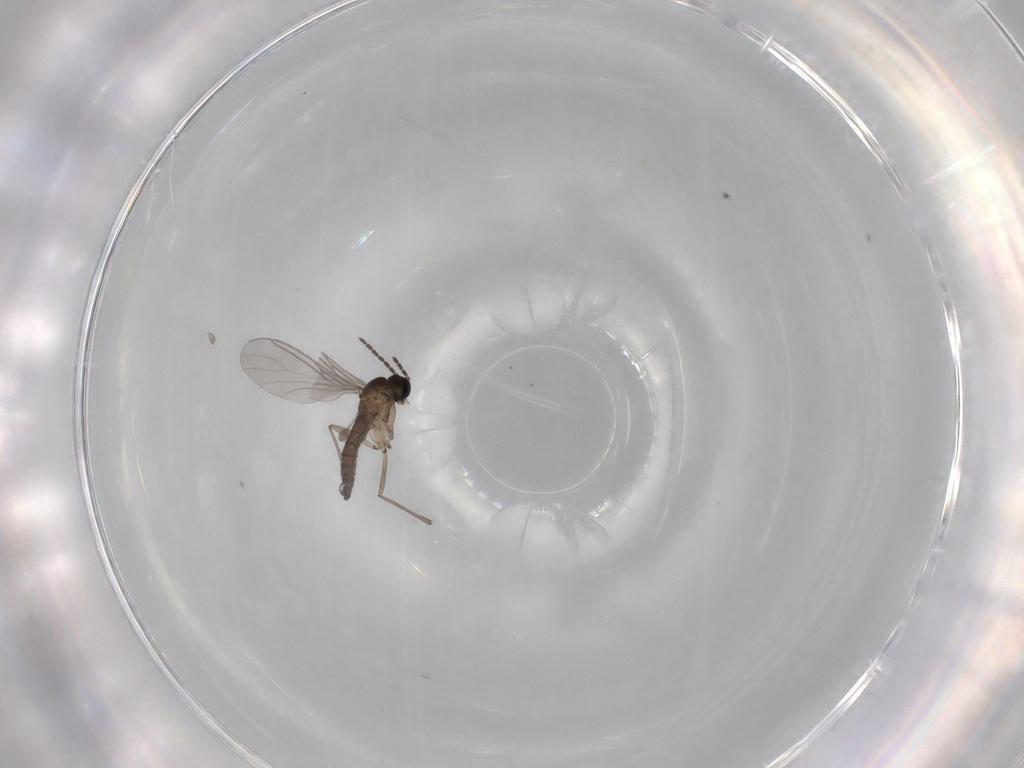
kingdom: Animalia
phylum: Arthropoda
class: Insecta
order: Diptera
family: Sciaridae
